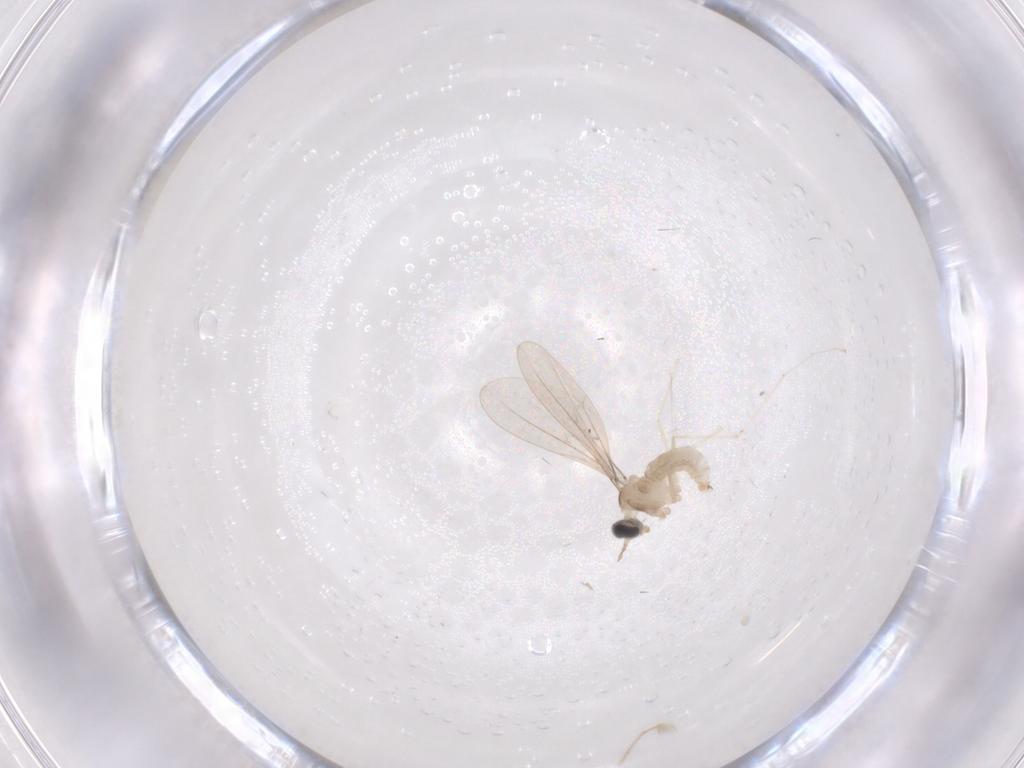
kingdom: Animalia
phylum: Arthropoda
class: Insecta
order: Diptera
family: Cecidomyiidae
